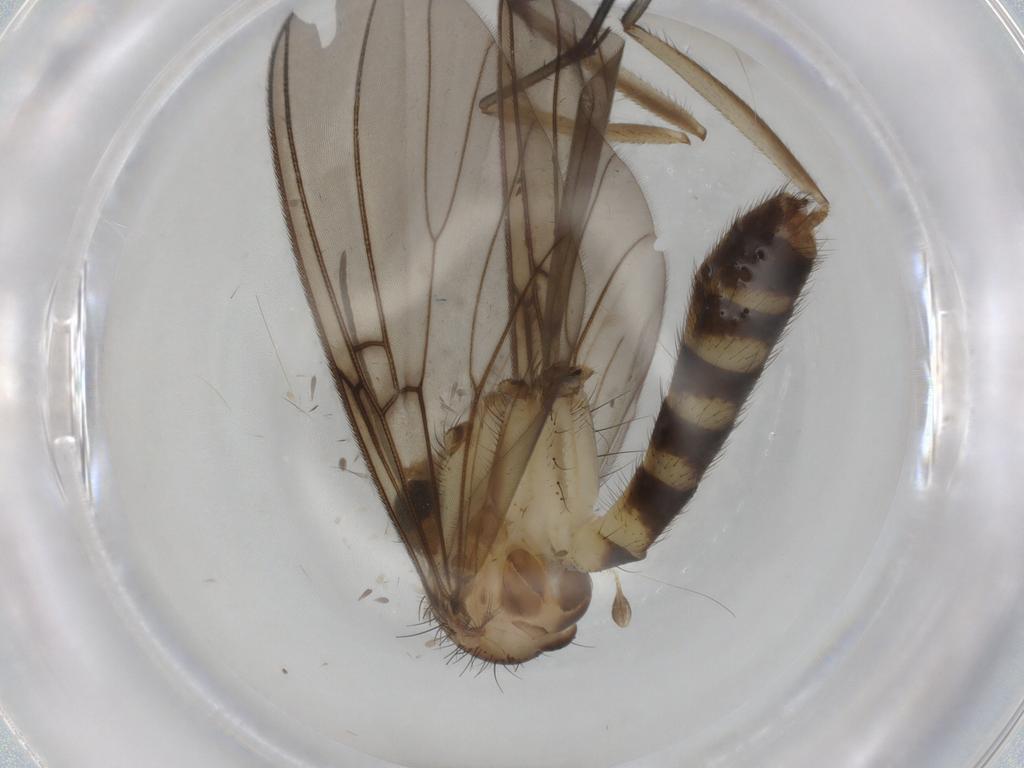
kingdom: Animalia
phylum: Arthropoda
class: Insecta
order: Diptera
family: Mycetophilidae
